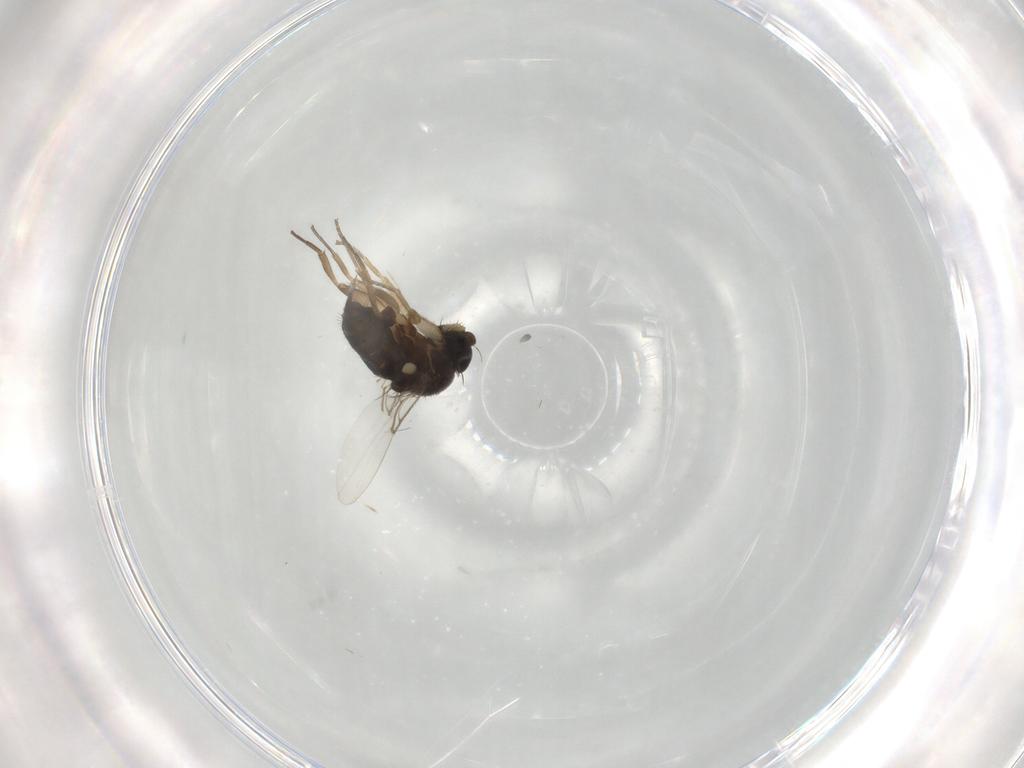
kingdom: Animalia
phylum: Arthropoda
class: Insecta
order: Diptera
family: Phoridae
